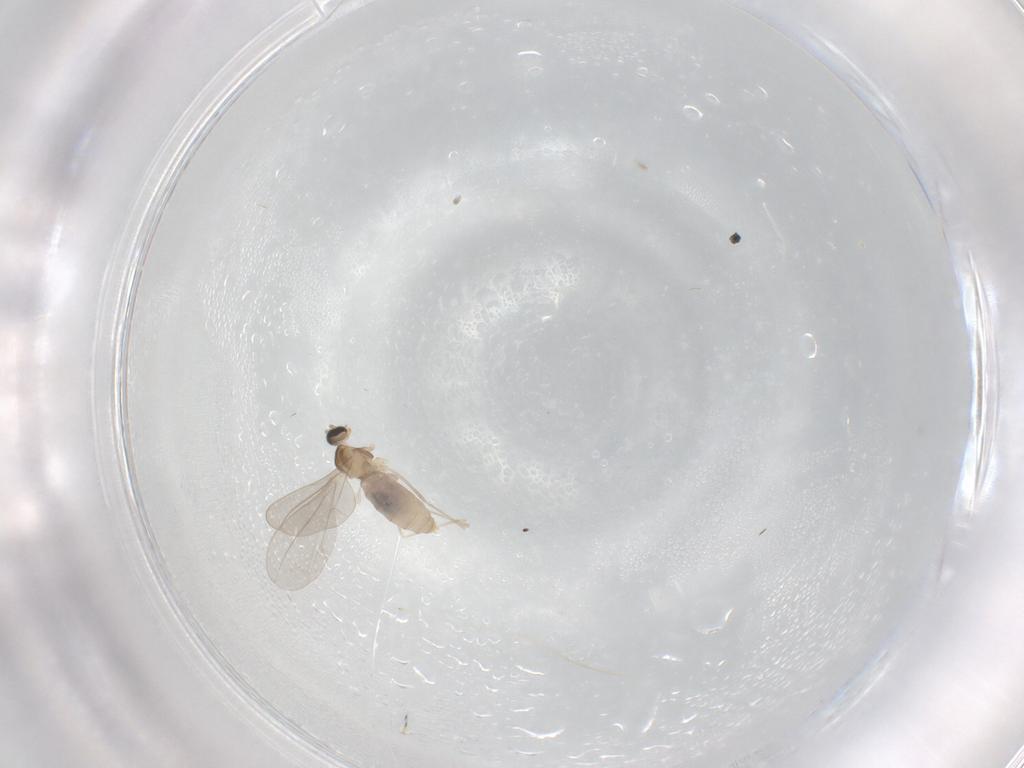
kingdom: Animalia
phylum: Arthropoda
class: Insecta
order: Diptera
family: Cecidomyiidae
